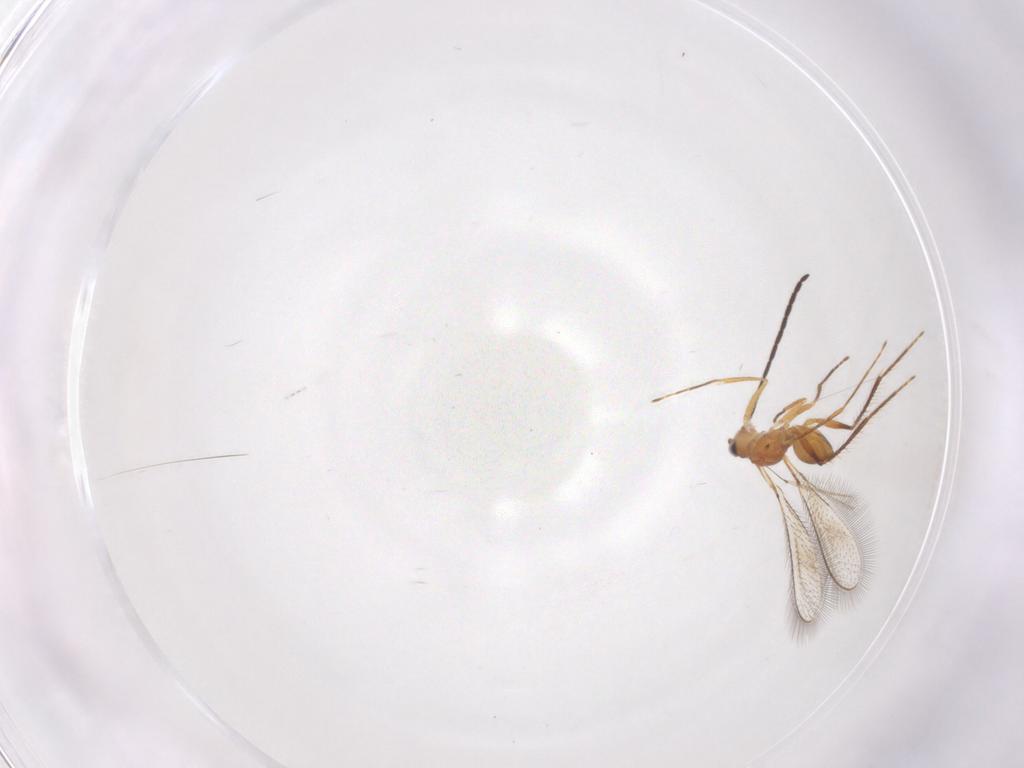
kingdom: Animalia
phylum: Arthropoda
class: Insecta
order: Hymenoptera
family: Mymaridae
